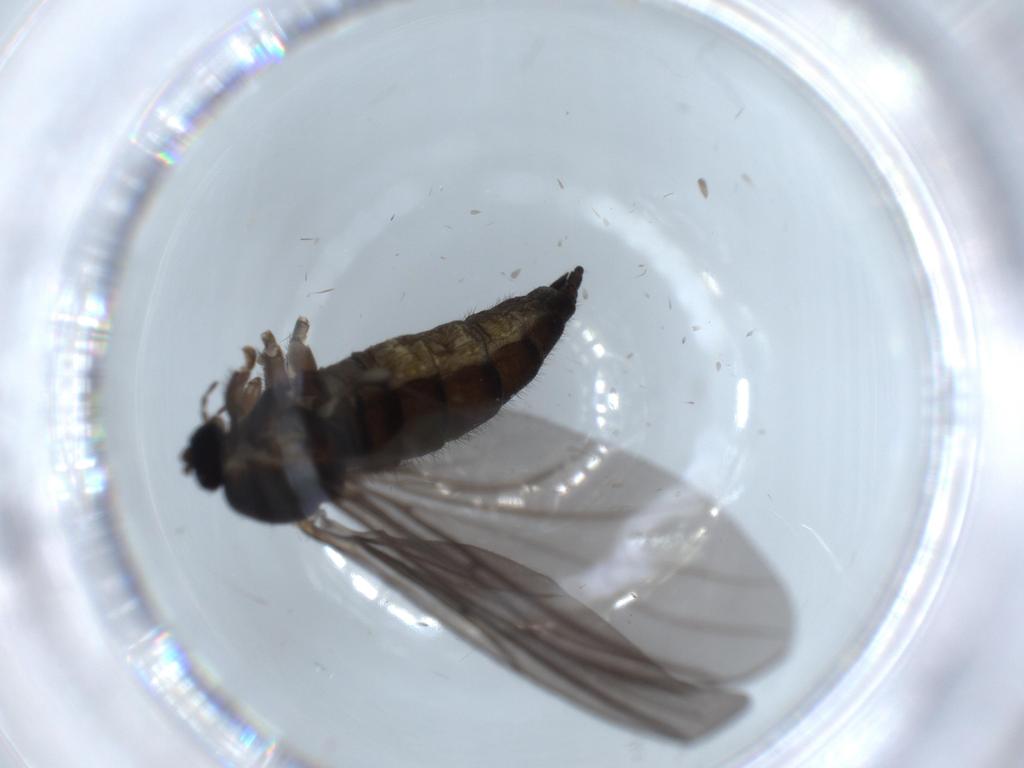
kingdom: Animalia
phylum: Arthropoda
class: Insecta
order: Diptera
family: Sciaridae
